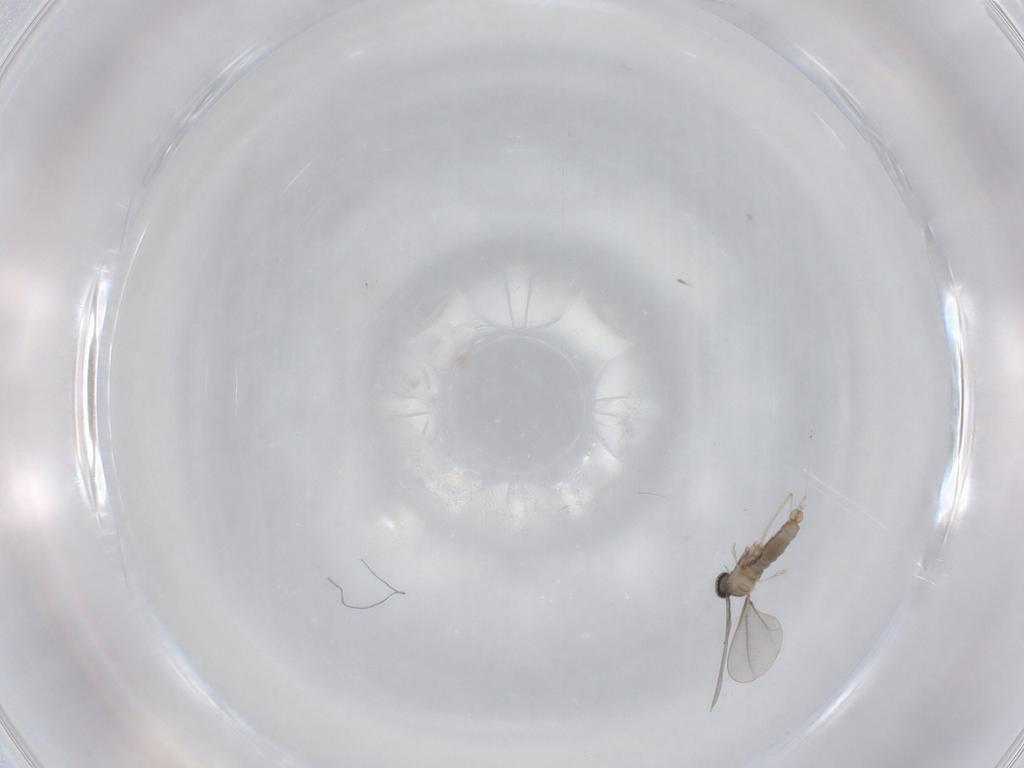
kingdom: Animalia
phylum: Arthropoda
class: Insecta
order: Diptera
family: Cecidomyiidae
